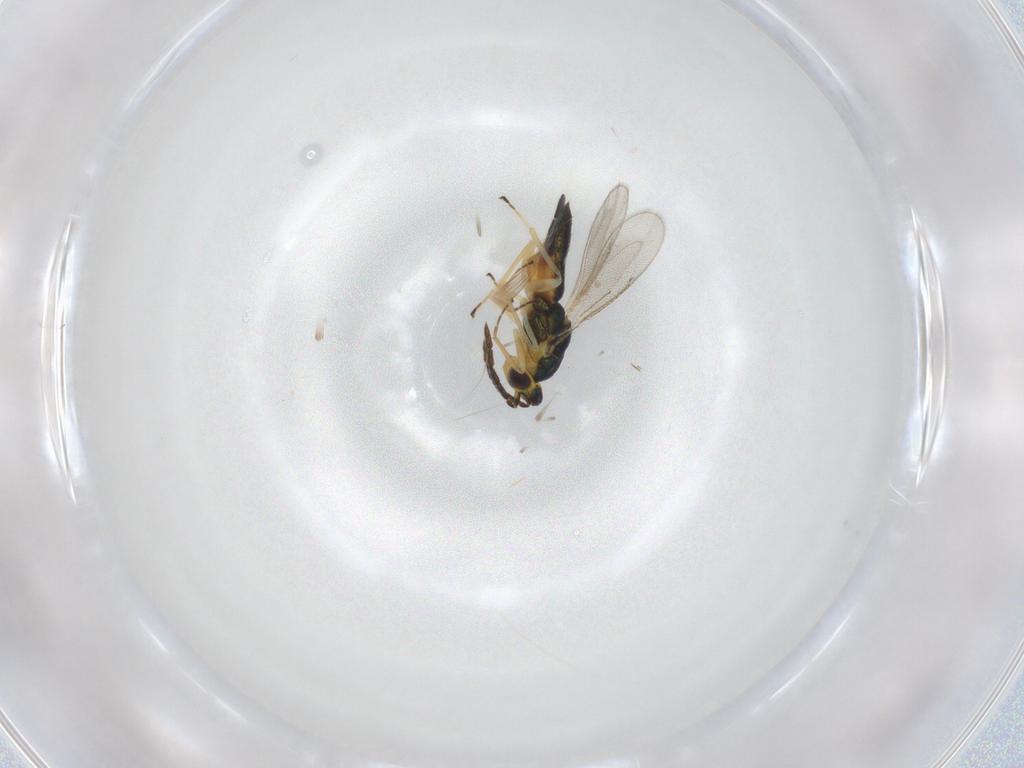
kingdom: Animalia
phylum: Arthropoda
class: Insecta
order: Hymenoptera
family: Eulophidae
